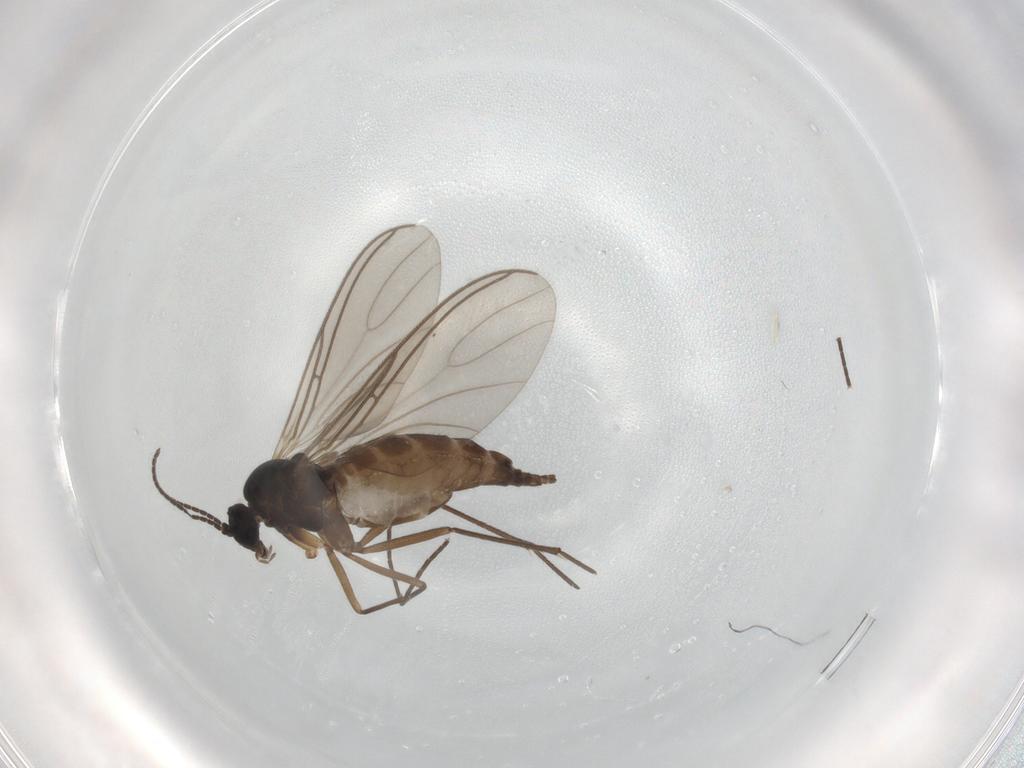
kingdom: Animalia
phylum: Arthropoda
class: Insecta
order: Diptera
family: Sciaridae
